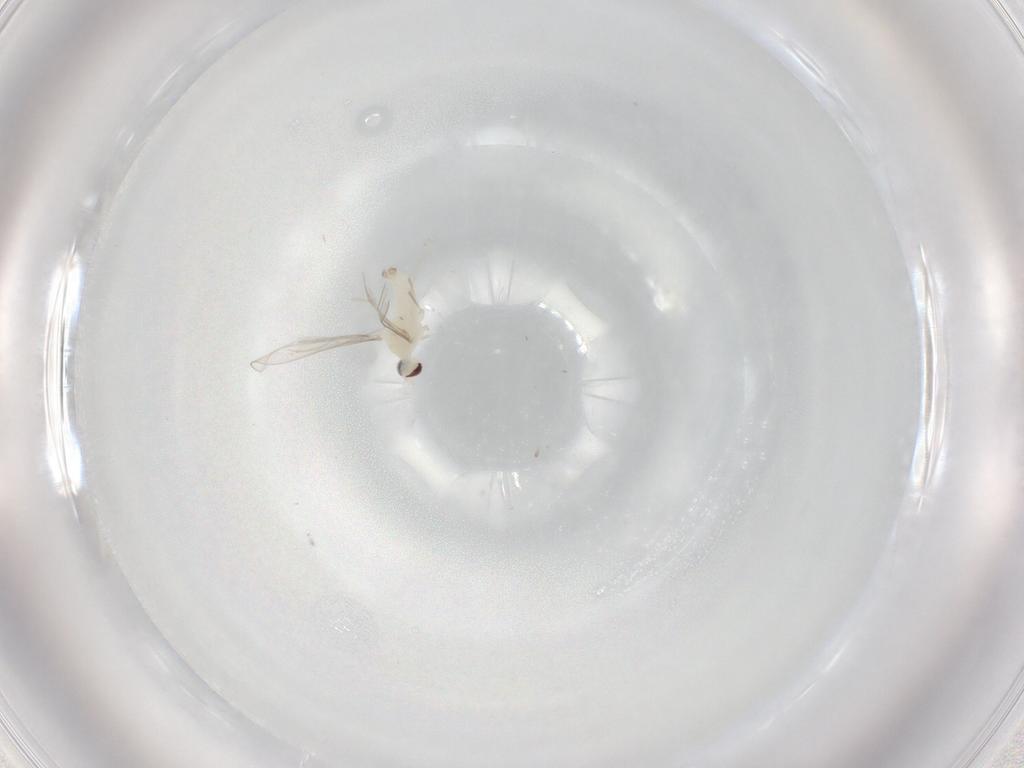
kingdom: Animalia
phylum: Arthropoda
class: Insecta
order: Diptera
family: Cecidomyiidae
